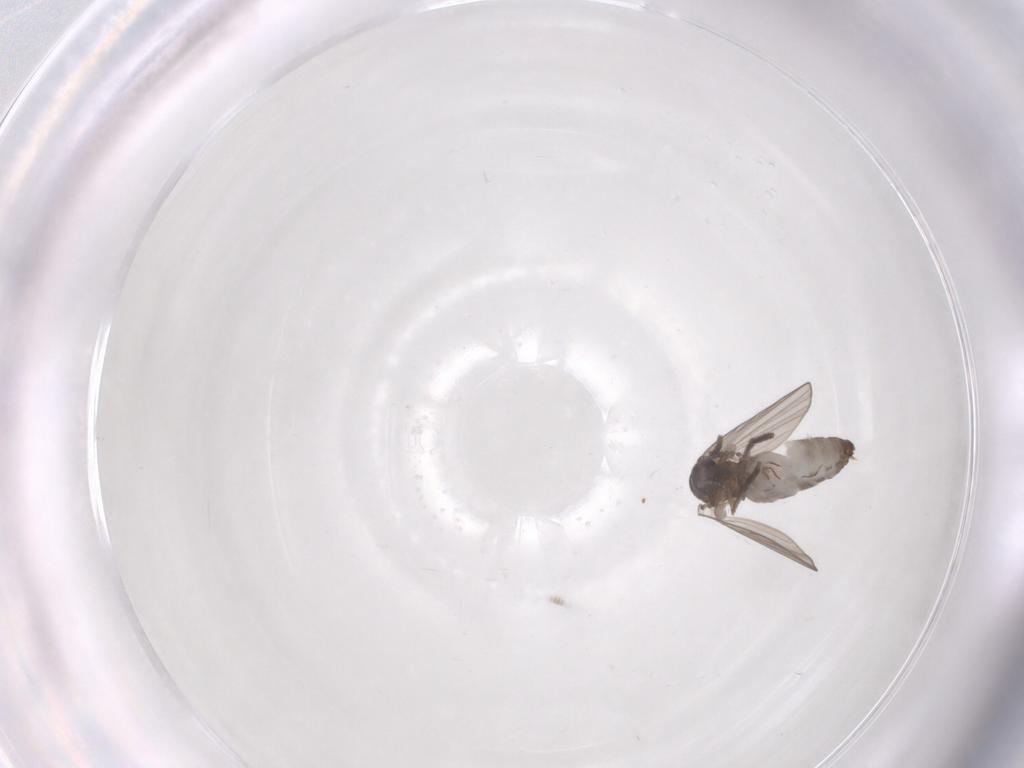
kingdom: Animalia
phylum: Arthropoda
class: Insecta
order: Diptera
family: Psychodidae
